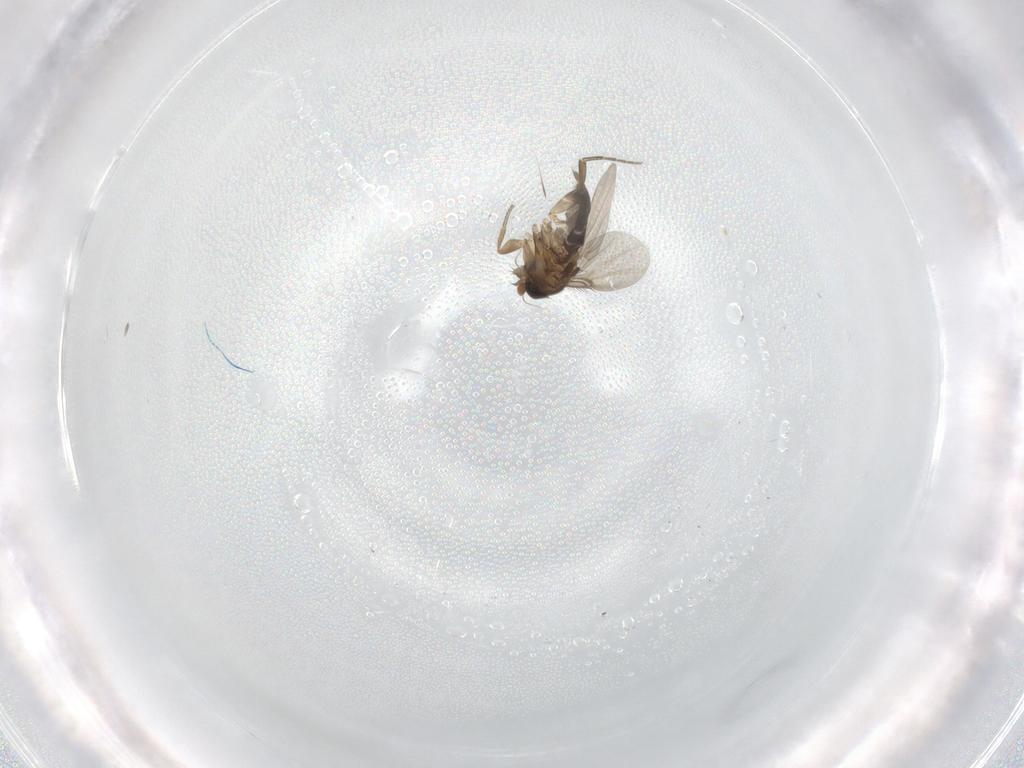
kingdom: Animalia
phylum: Arthropoda
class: Insecta
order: Diptera
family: Phoridae
